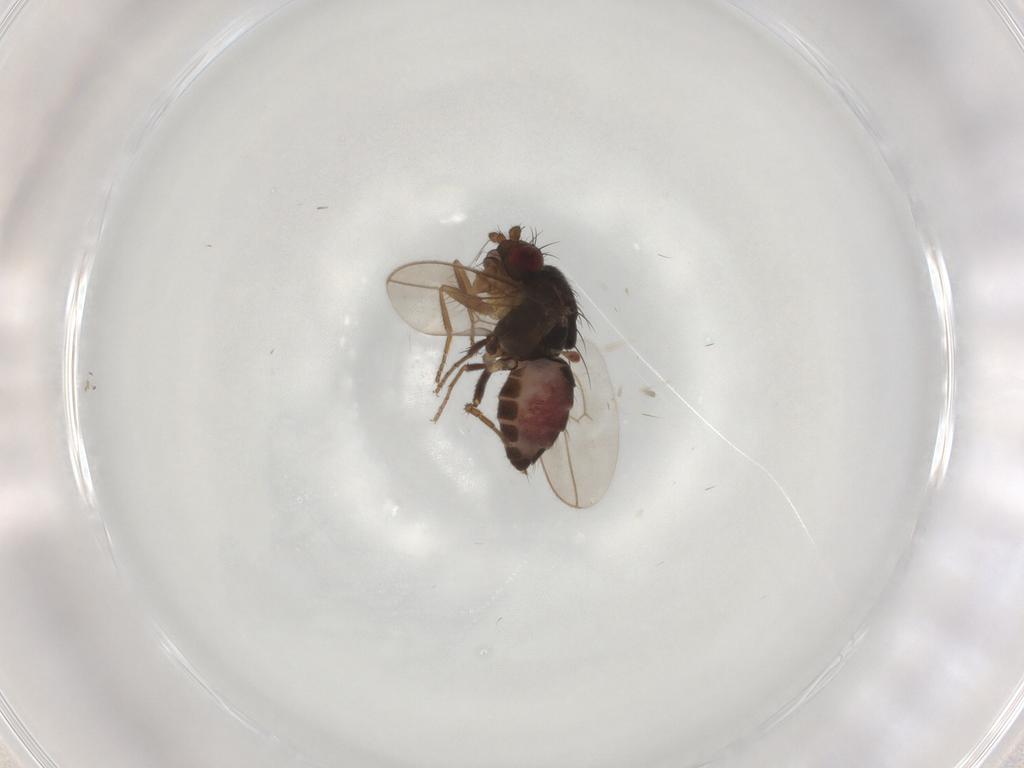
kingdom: Animalia
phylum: Arthropoda
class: Insecta
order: Diptera
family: Sphaeroceridae
